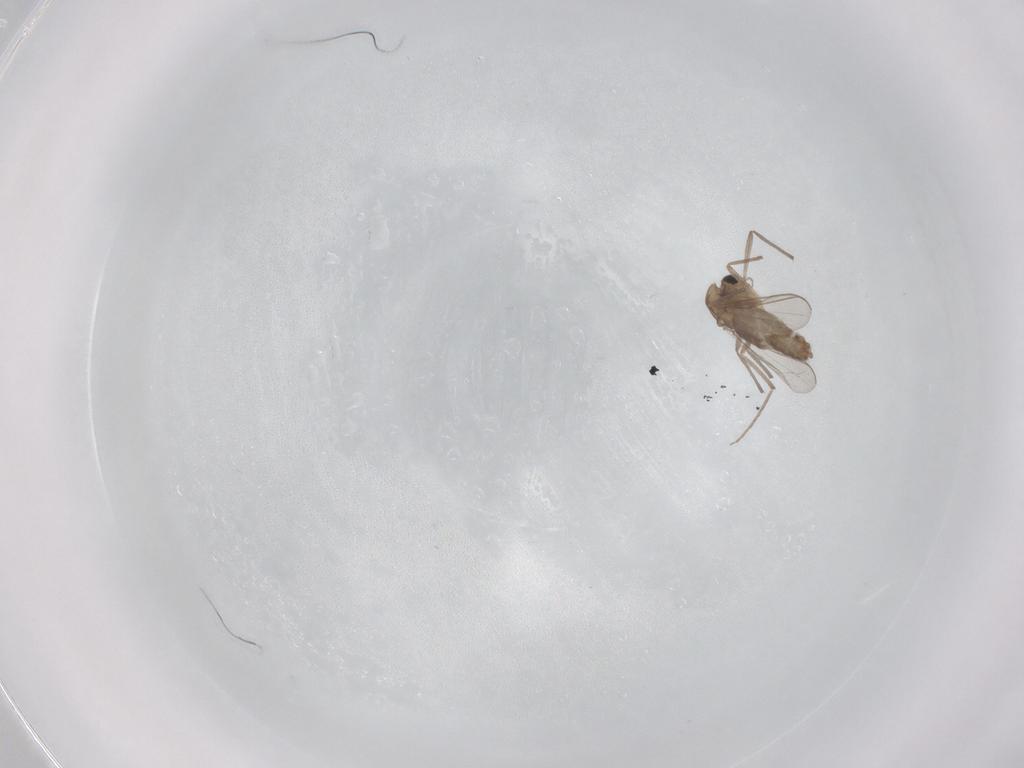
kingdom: Animalia
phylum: Arthropoda
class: Insecta
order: Diptera
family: Chironomidae
